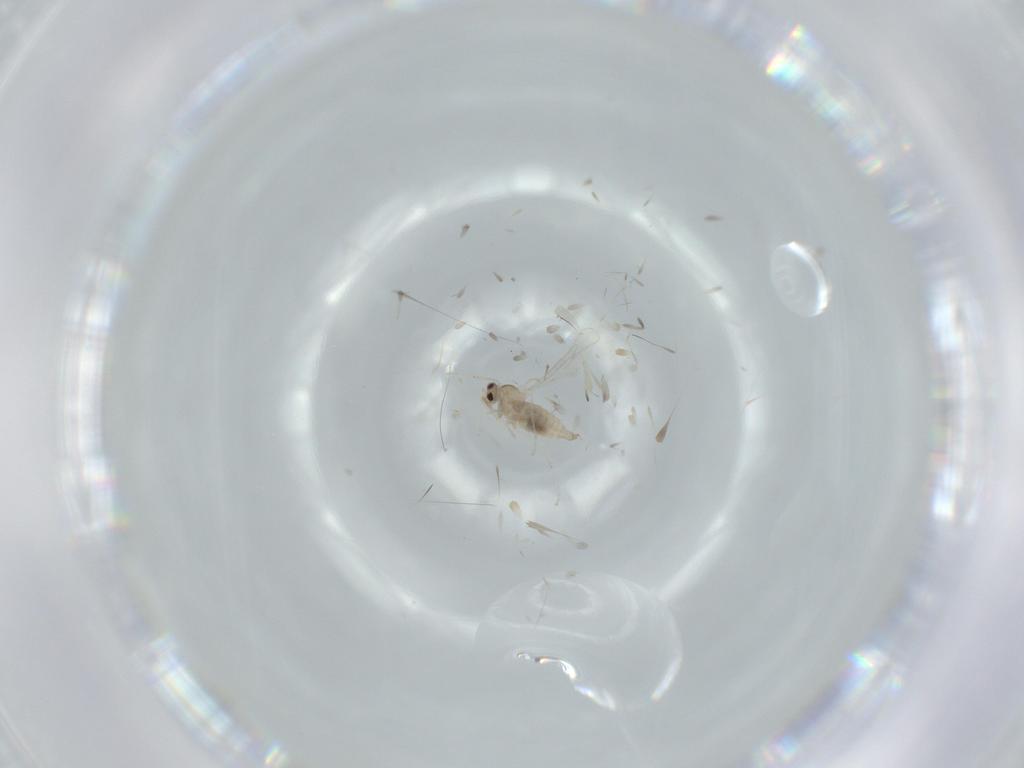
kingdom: Animalia
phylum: Arthropoda
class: Insecta
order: Diptera
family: Cecidomyiidae
